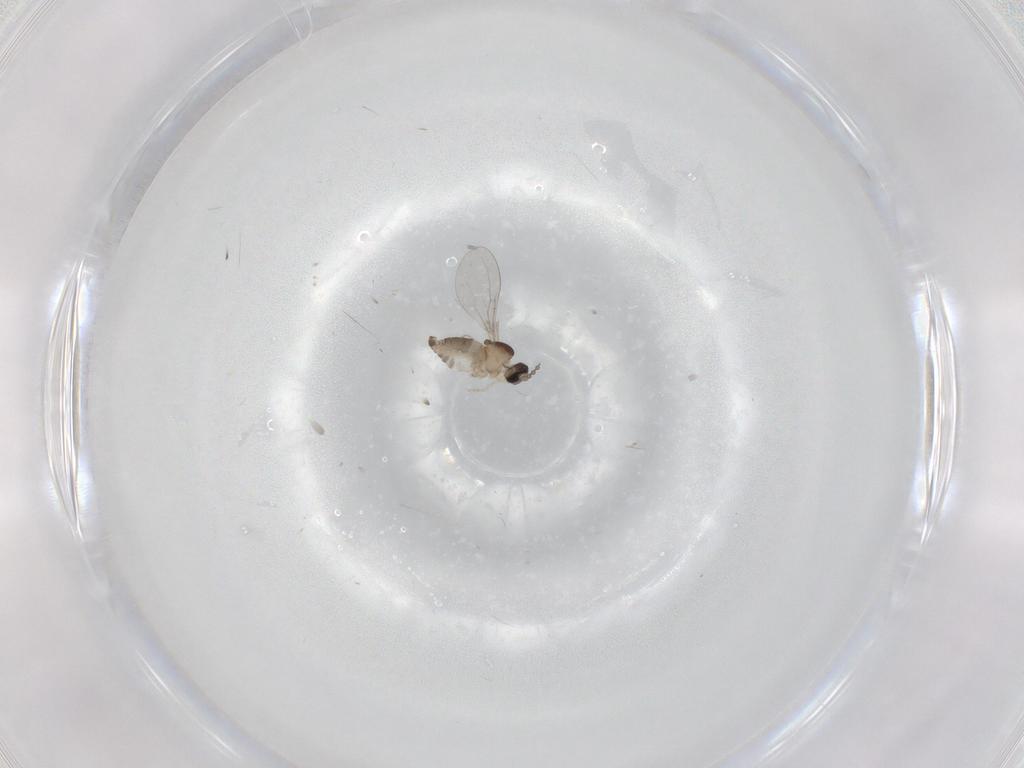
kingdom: Animalia
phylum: Arthropoda
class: Insecta
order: Diptera
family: Cecidomyiidae
